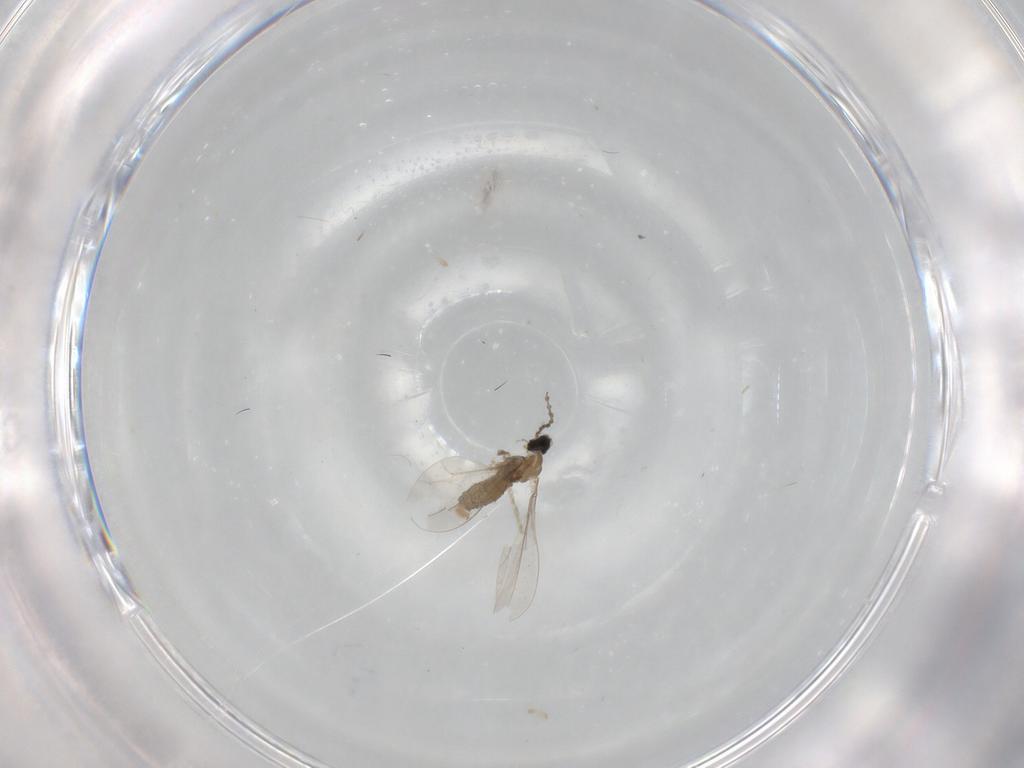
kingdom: Animalia
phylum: Arthropoda
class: Insecta
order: Diptera
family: Cecidomyiidae
